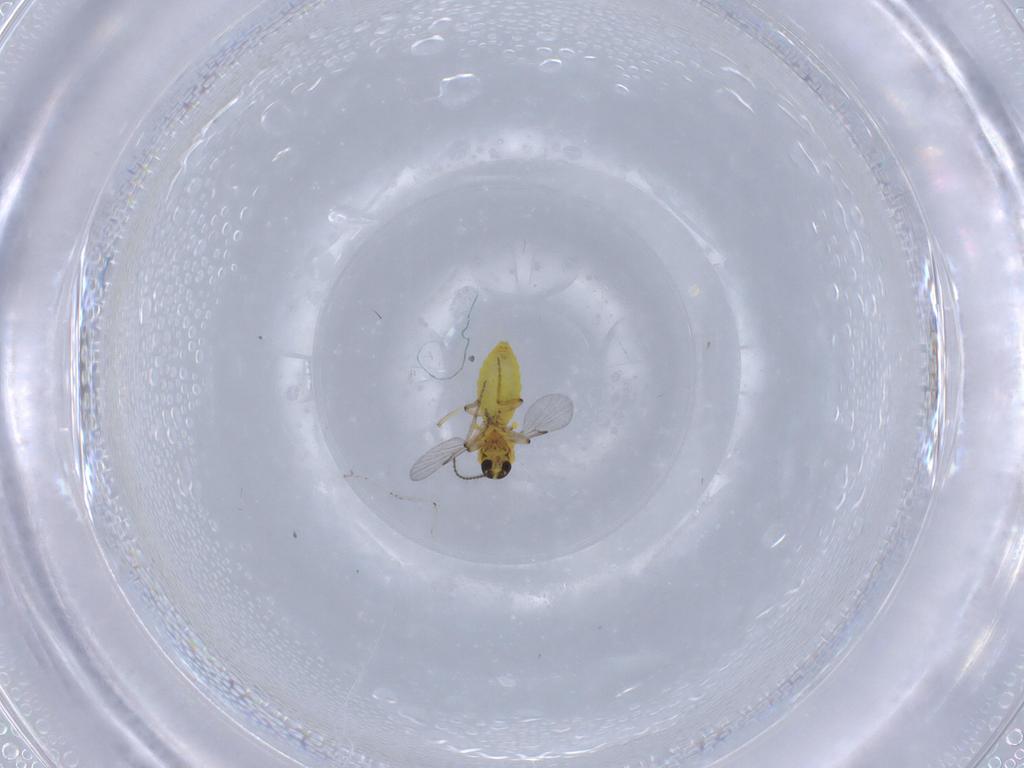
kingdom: Animalia
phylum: Arthropoda
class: Insecta
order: Diptera
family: Ceratopogonidae
